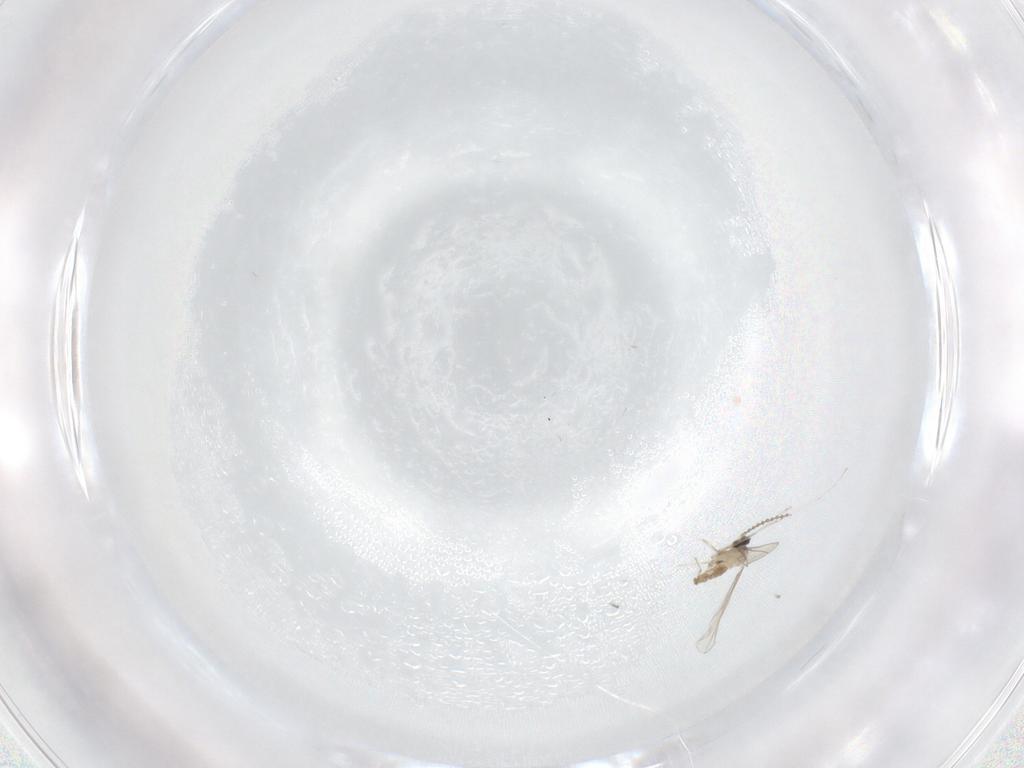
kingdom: Animalia
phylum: Arthropoda
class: Insecta
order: Diptera
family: Cecidomyiidae
